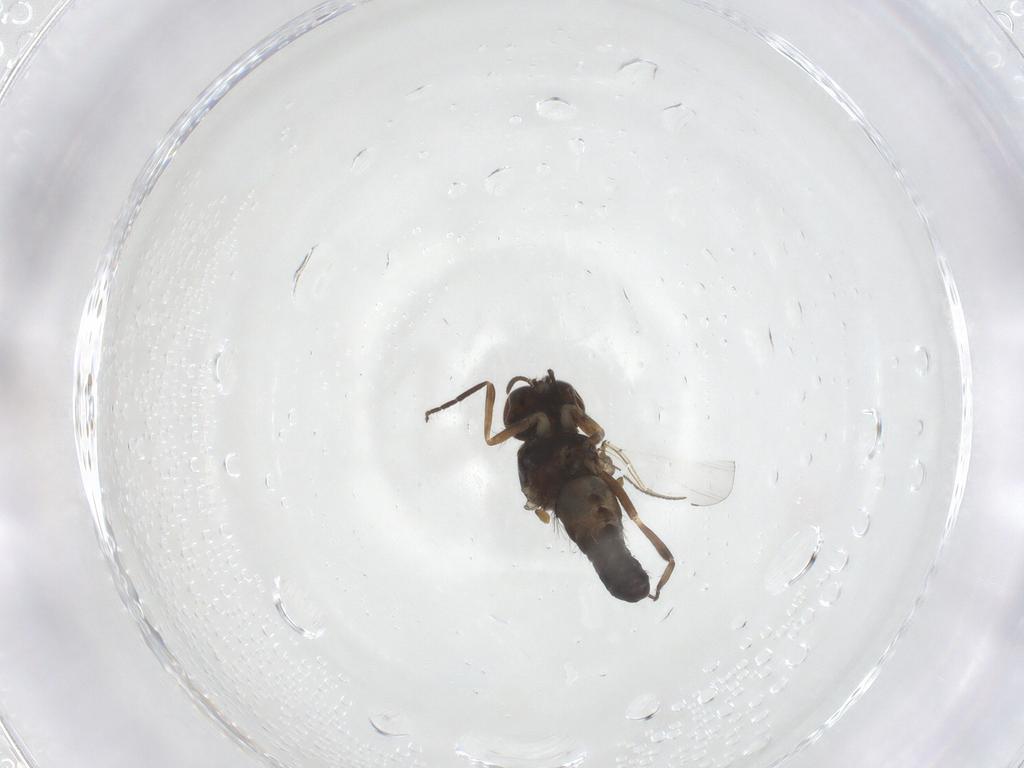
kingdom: Animalia
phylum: Arthropoda
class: Insecta
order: Diptera
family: Simuliidae
